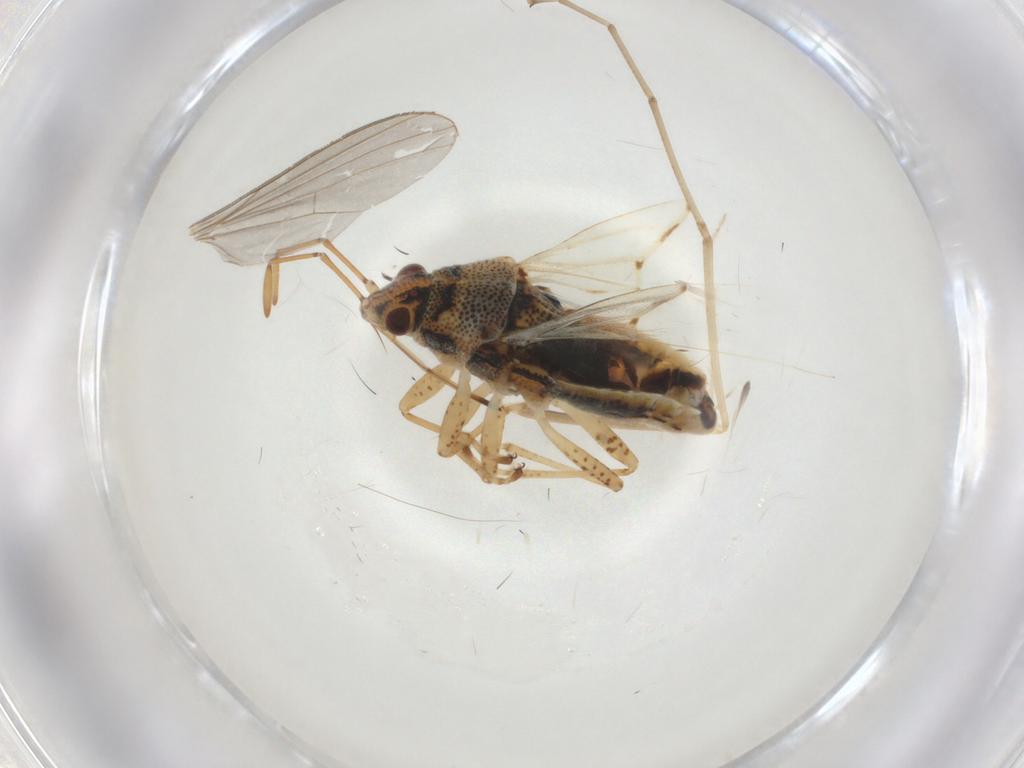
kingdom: Animalia
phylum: Arthropoda
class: Insecta
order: Hemiptera
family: Lygaeidae
